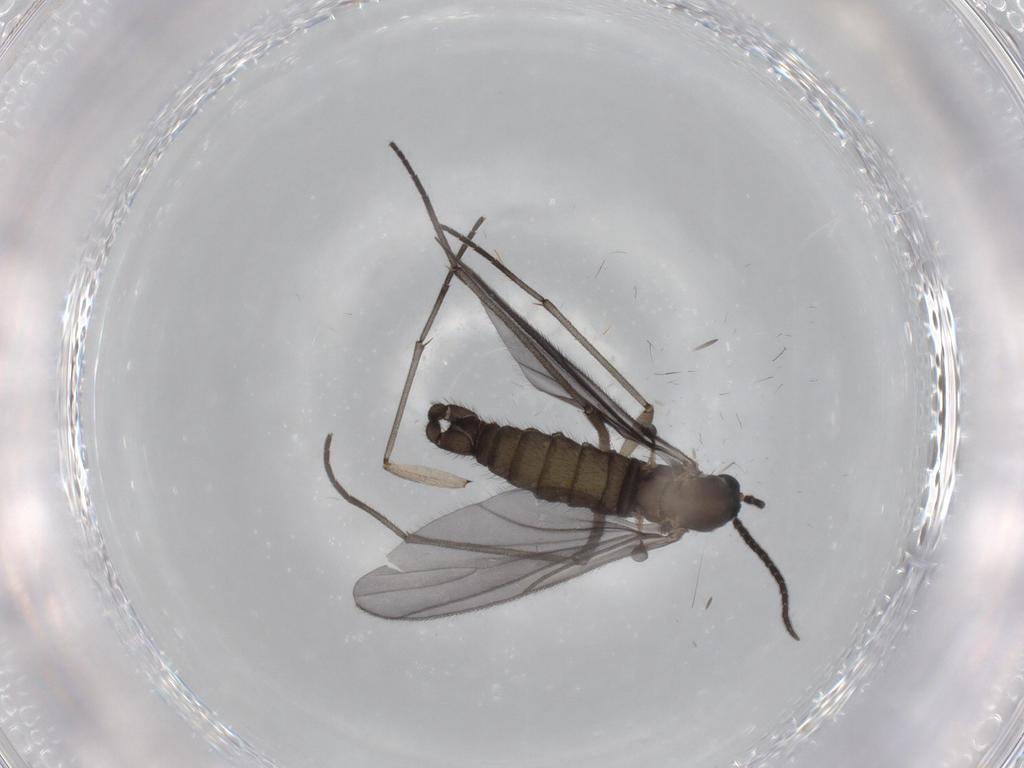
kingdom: Animalia
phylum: Arthropoda
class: Insecta
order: Diptera
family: Sciaridae
